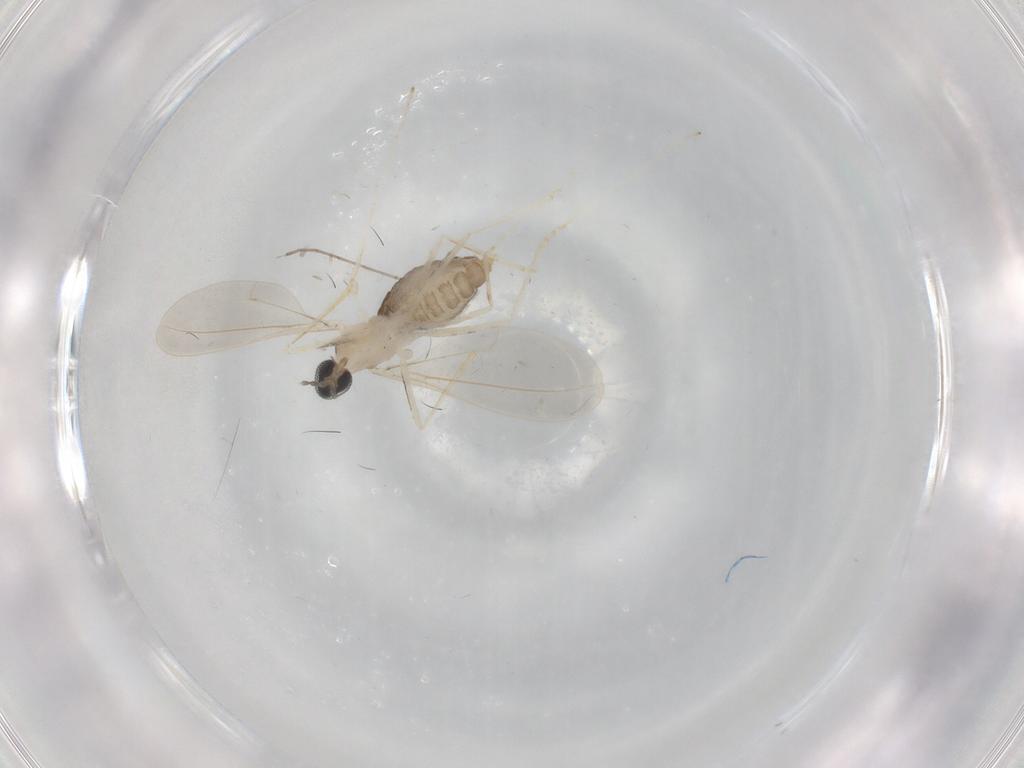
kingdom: Animalia
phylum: Arthropoda
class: Insecta
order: Diptera
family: Cecidomyiidae
